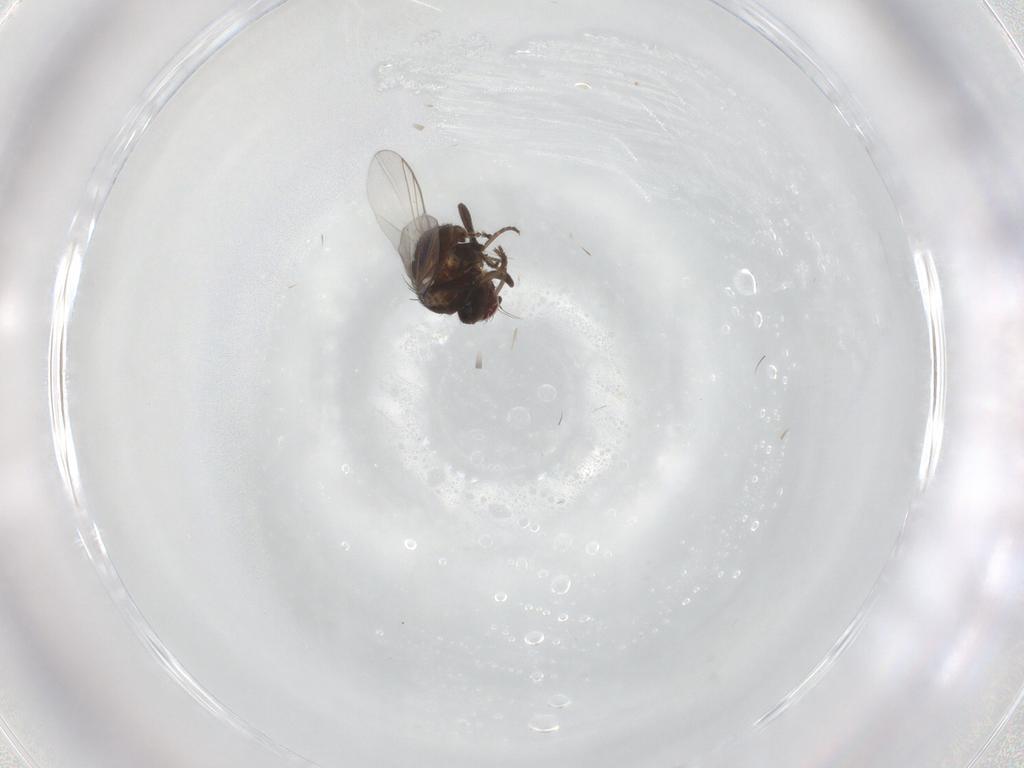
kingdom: Animalia
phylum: Arthropoda
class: Insecta
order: Diptera
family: Agromyzidae
